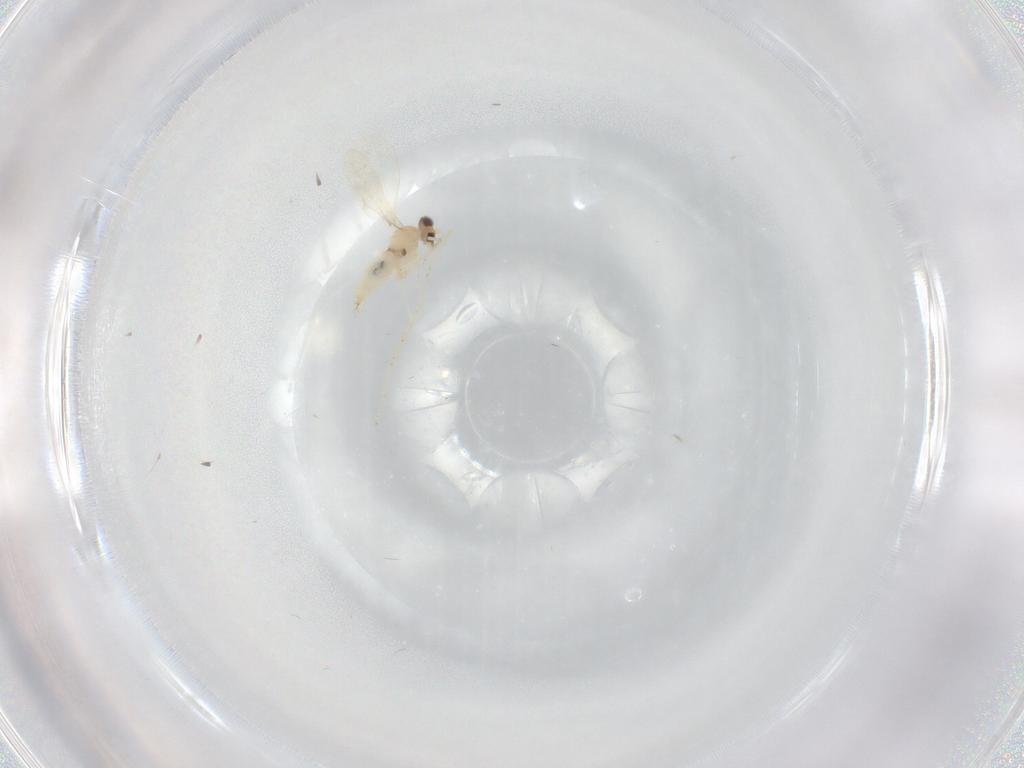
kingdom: Animalia
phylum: Arthropoda
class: Insecta
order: Diptera
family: Cecidomyiidae
